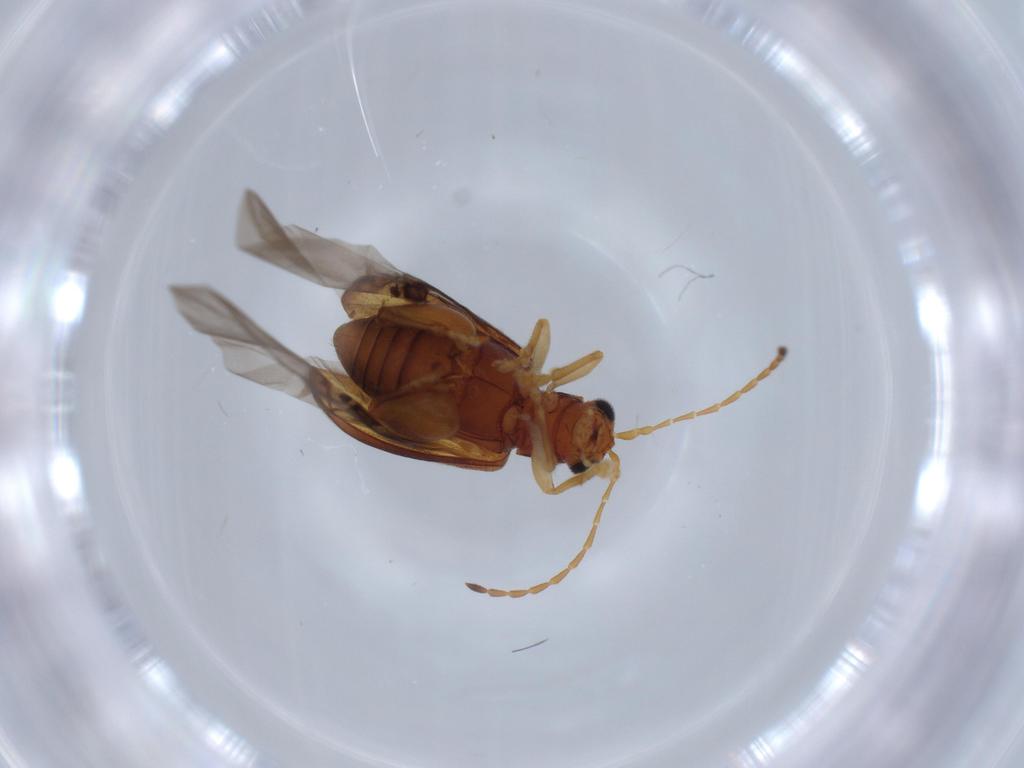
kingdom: Animalia
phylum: Arthropoda
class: Insecta
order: Coleoptera
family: Chrysomelidae
